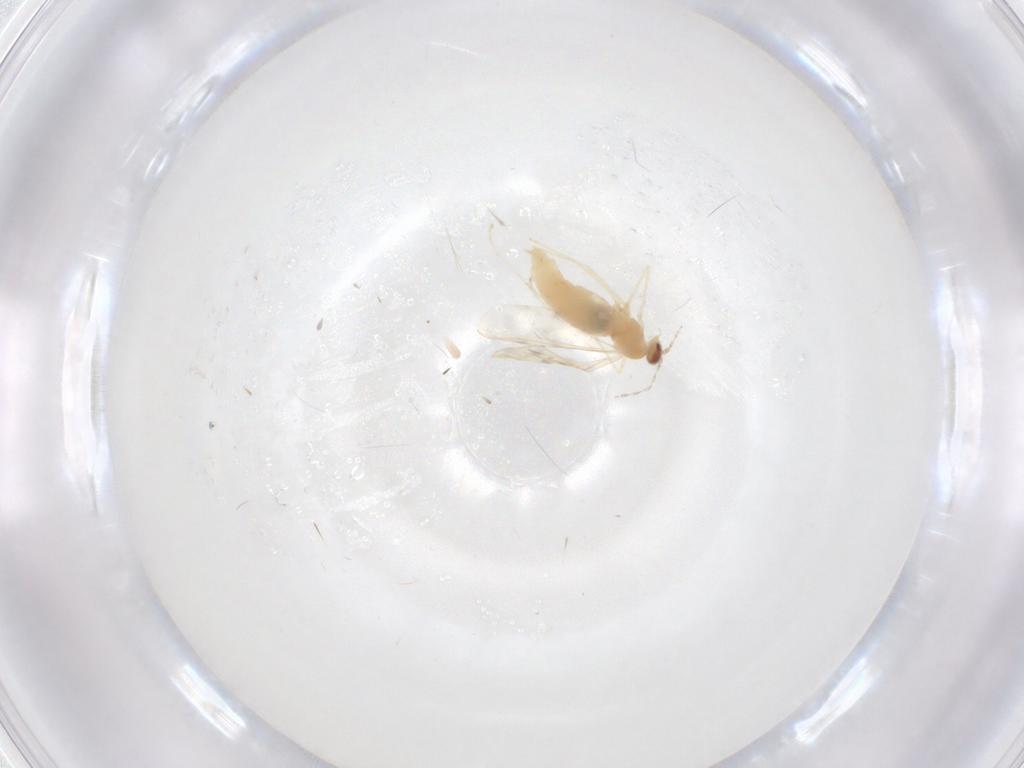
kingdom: Animalia
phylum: Arthropoda
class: Insecta
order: Diptera
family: Cecidomyiidae
